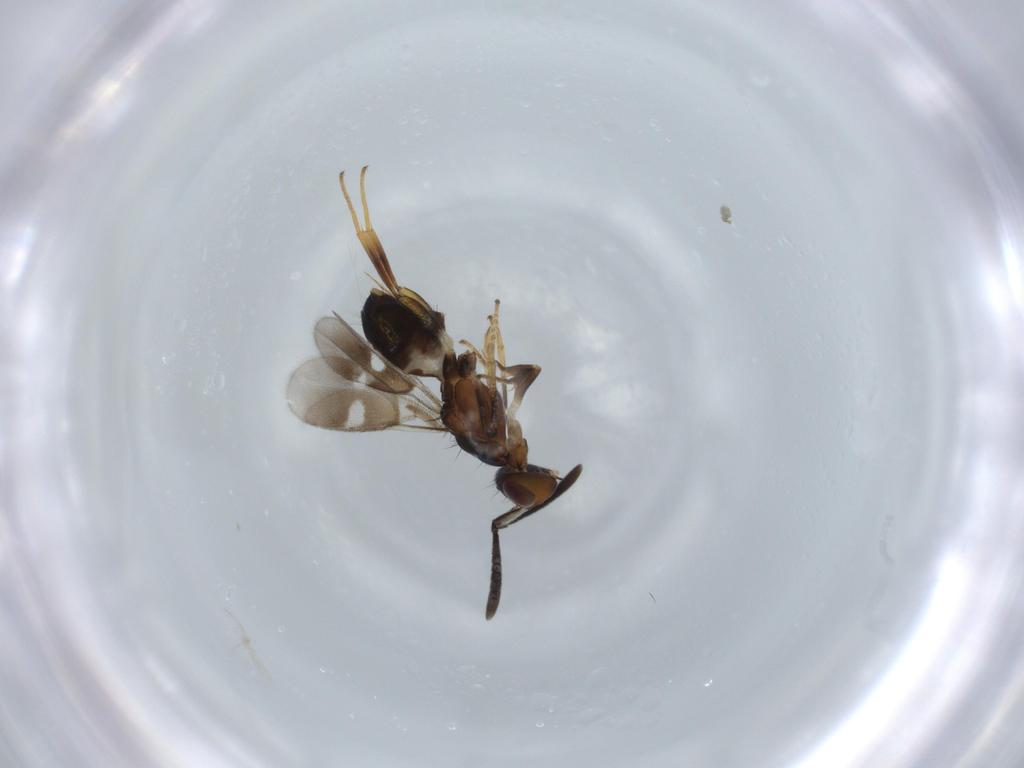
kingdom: Animalia
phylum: Arthropoda
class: Insecta
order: Hymenoptera
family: Eupelmidae
